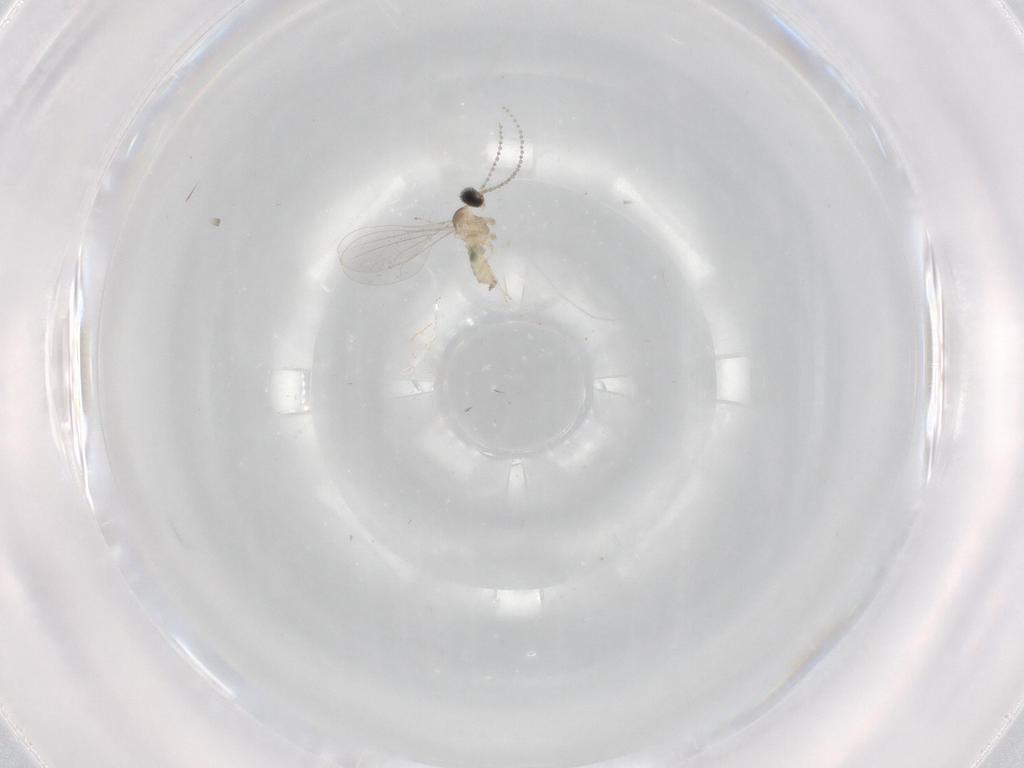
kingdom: Animalia
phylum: Arthropoda
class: Insecta
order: Diptera
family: Cecidomyiidae
